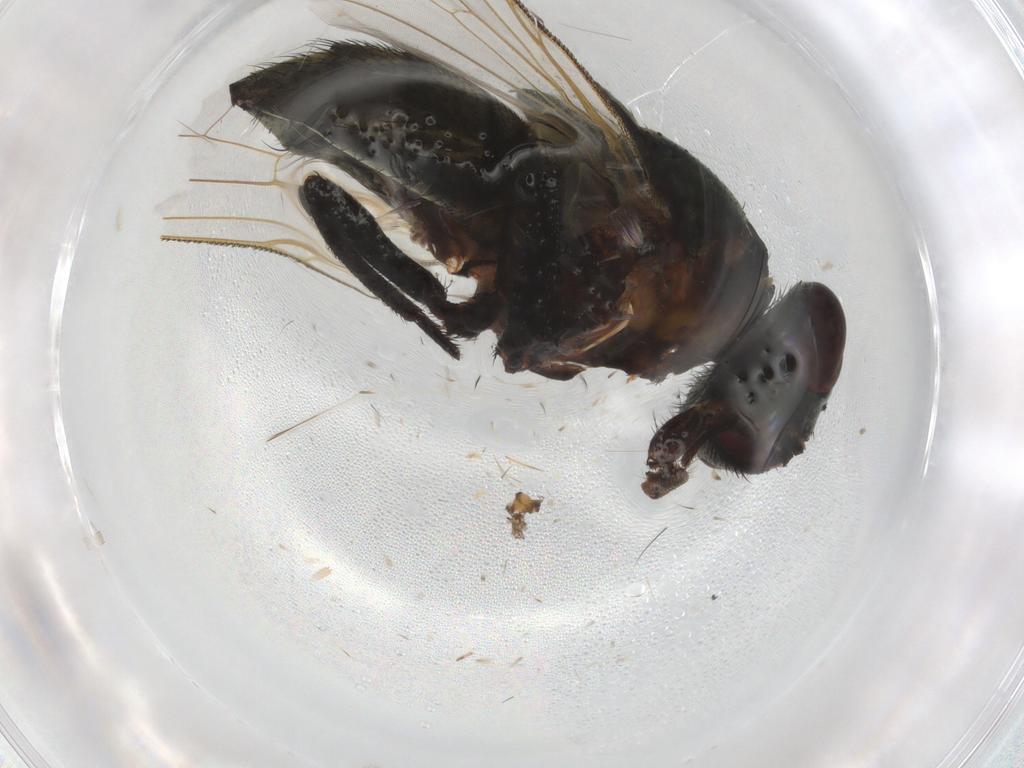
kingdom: Animalia
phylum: Arthropoda
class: Insecta
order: Diptera
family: Muscidae
